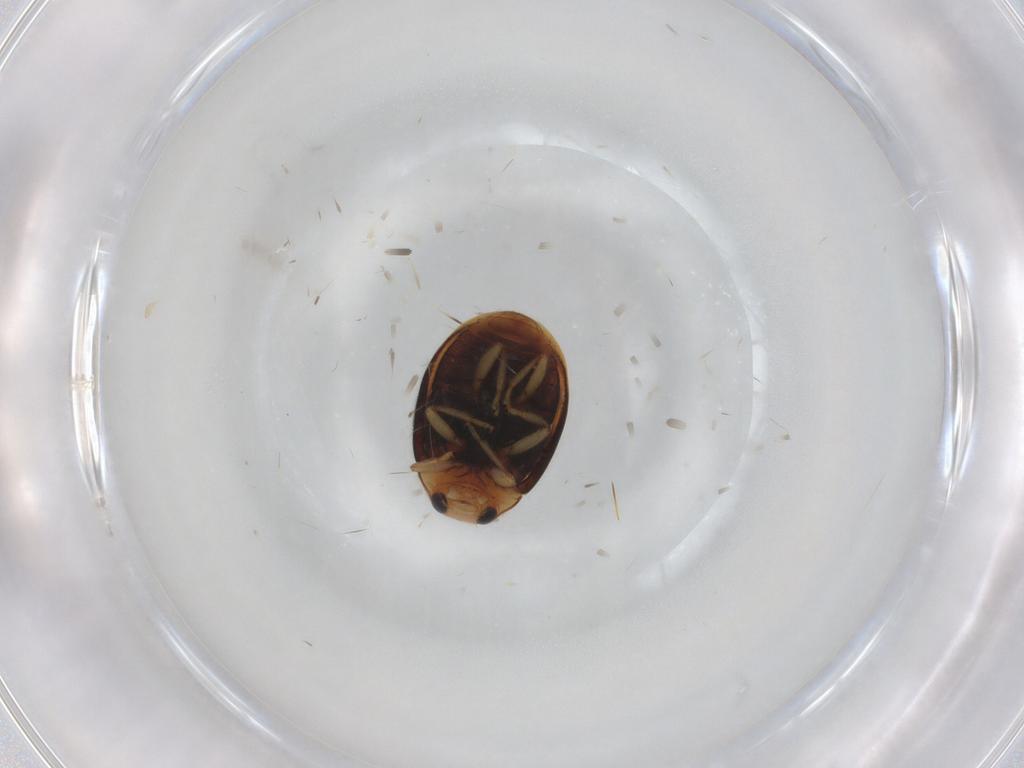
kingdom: Animalia
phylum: Arthropoda
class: Insecta
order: Coleoptera
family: Coccinellidae
